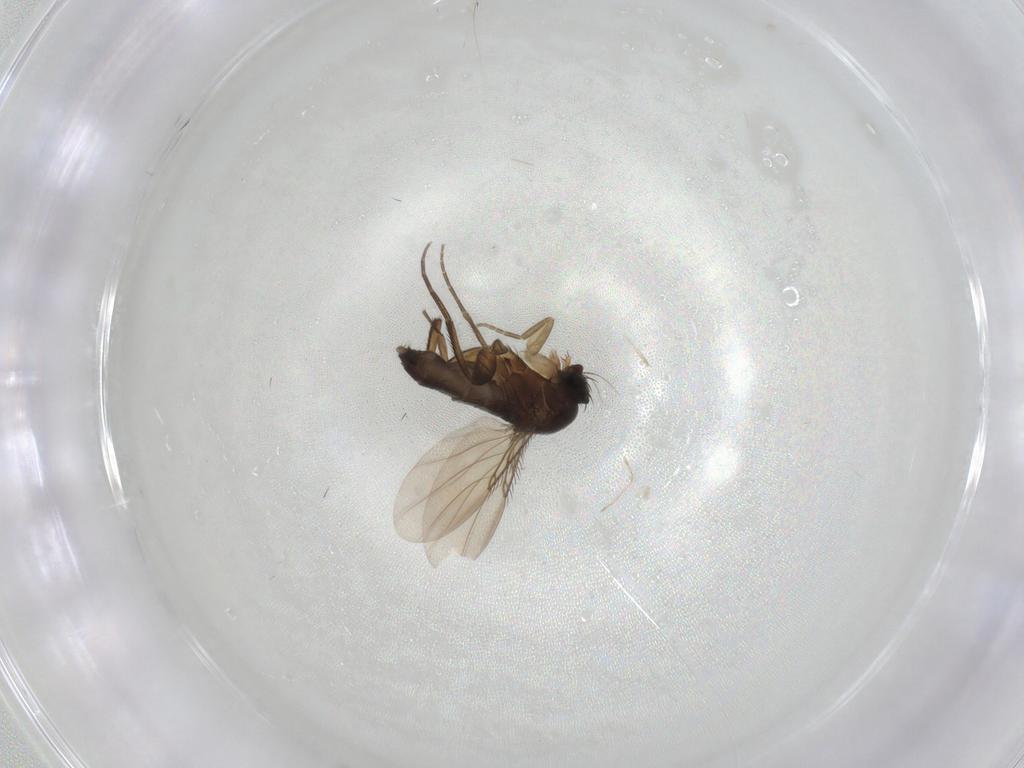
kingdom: Animalia
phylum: Arthropoda
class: Insecta
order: Diptera
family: Phoridae
